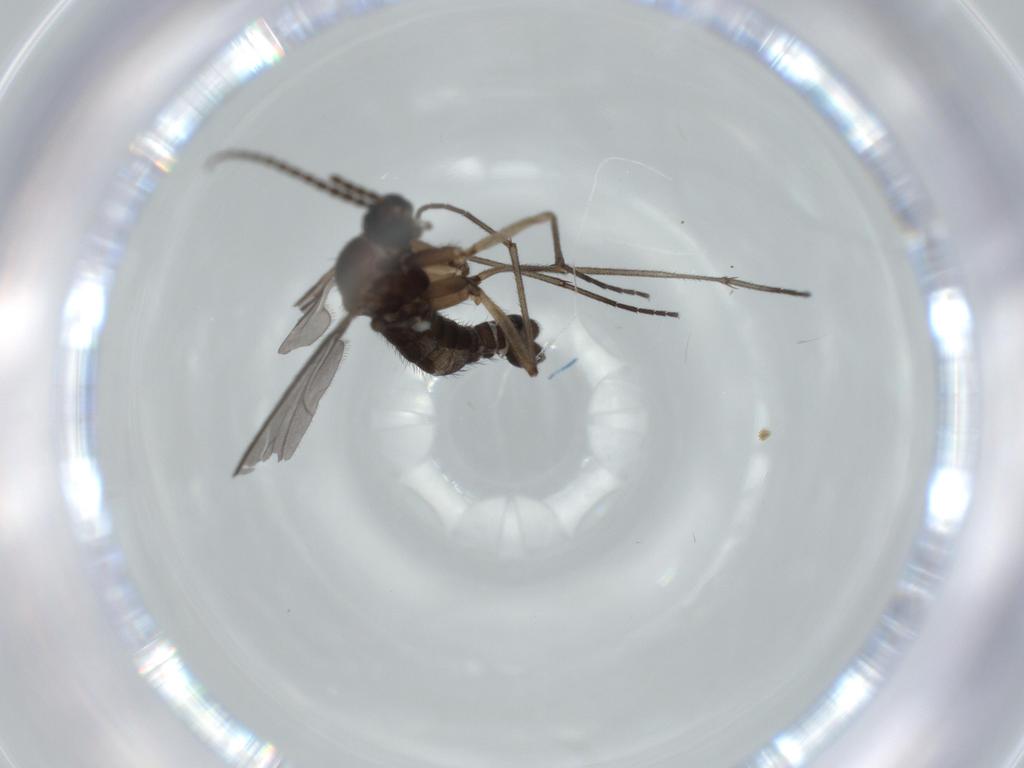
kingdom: Animalia
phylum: Arthropoda
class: Insecta
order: Diptera
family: Sciaridae
